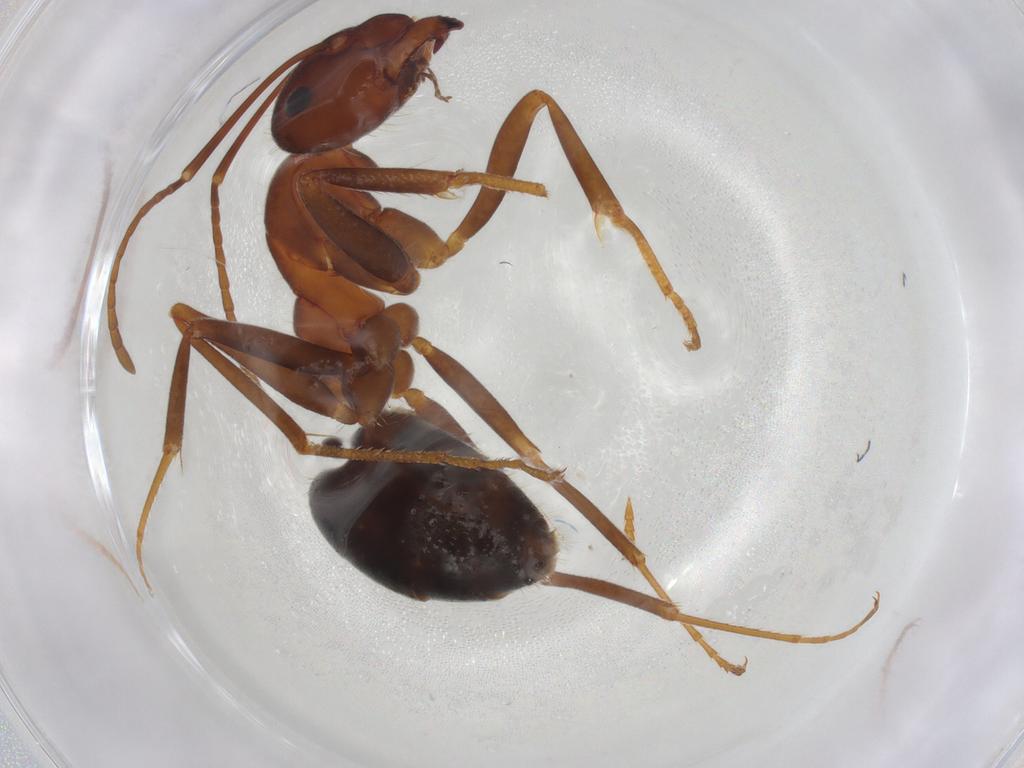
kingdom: Animalia
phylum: Arthropoda
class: Insecta
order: Hymenoptera
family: Formicidae
